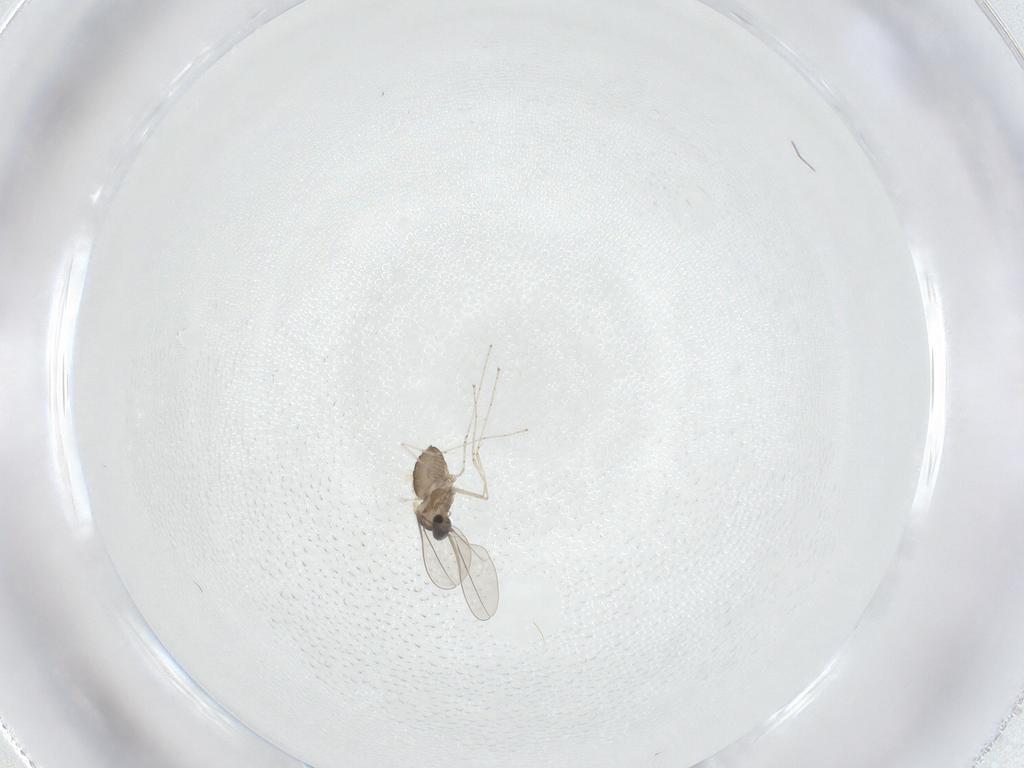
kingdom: Animalia
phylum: Arthropoda
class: Insecta
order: Diptera
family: Cecidomyiidae
